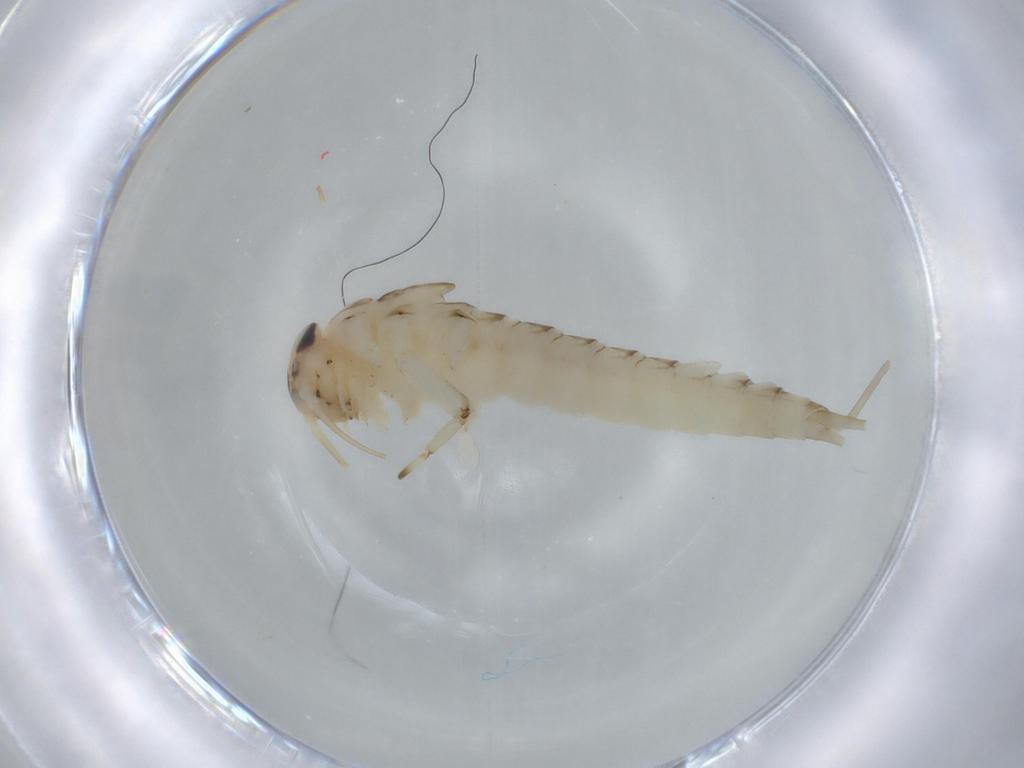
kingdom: Animalia
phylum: Arthropoda
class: Insecta
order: Ephemeroptera
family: Baetidae
